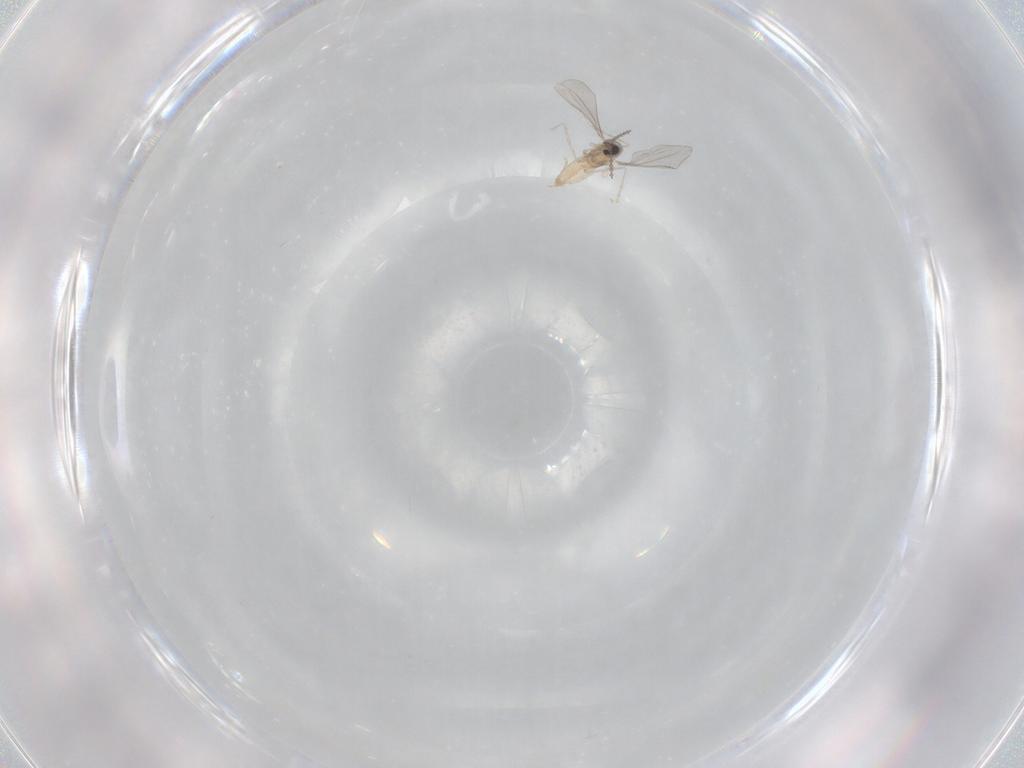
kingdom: Animalia
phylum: Arthropoda
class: Insecta
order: Diptera
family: Cecidomyiidae
